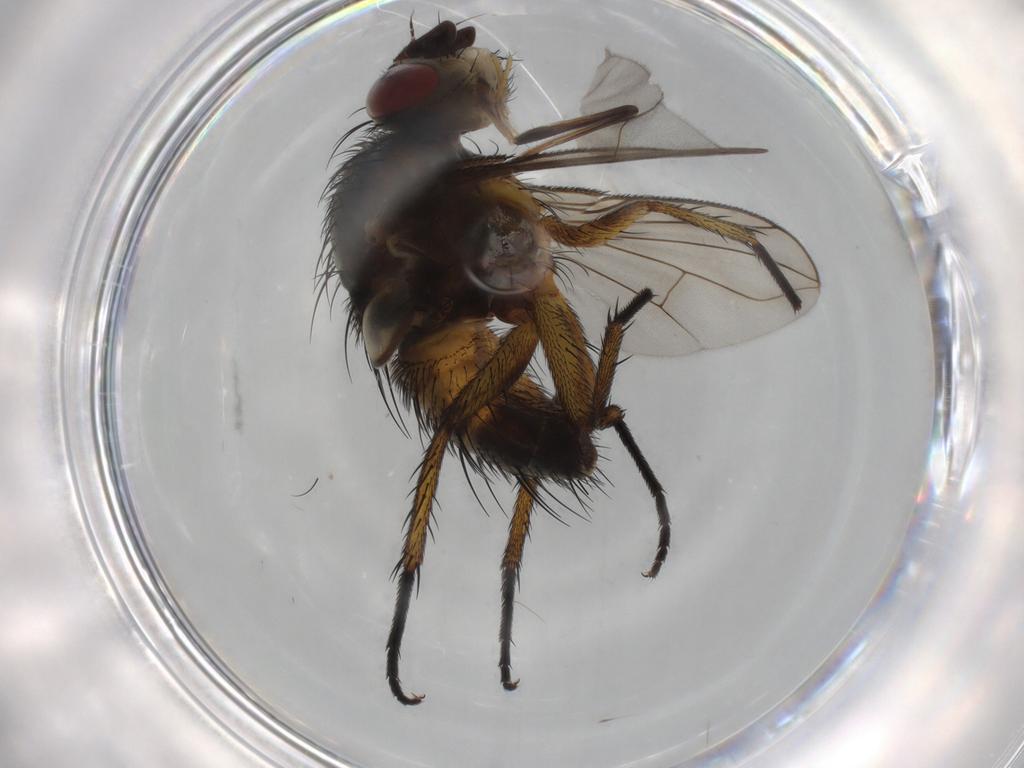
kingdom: Animalia
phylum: Arthropoda
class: Insecta
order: Diptera
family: Tachinidae
